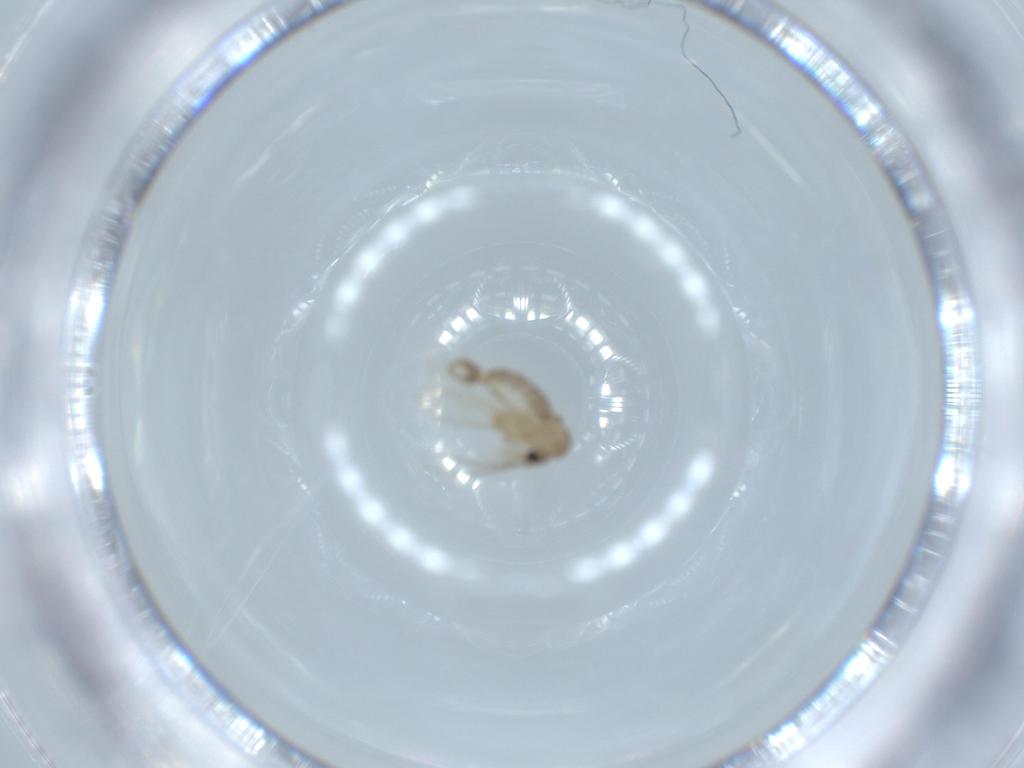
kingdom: Animalia
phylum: Arthropoda
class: Insecta
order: Diptera
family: Psychodidae
